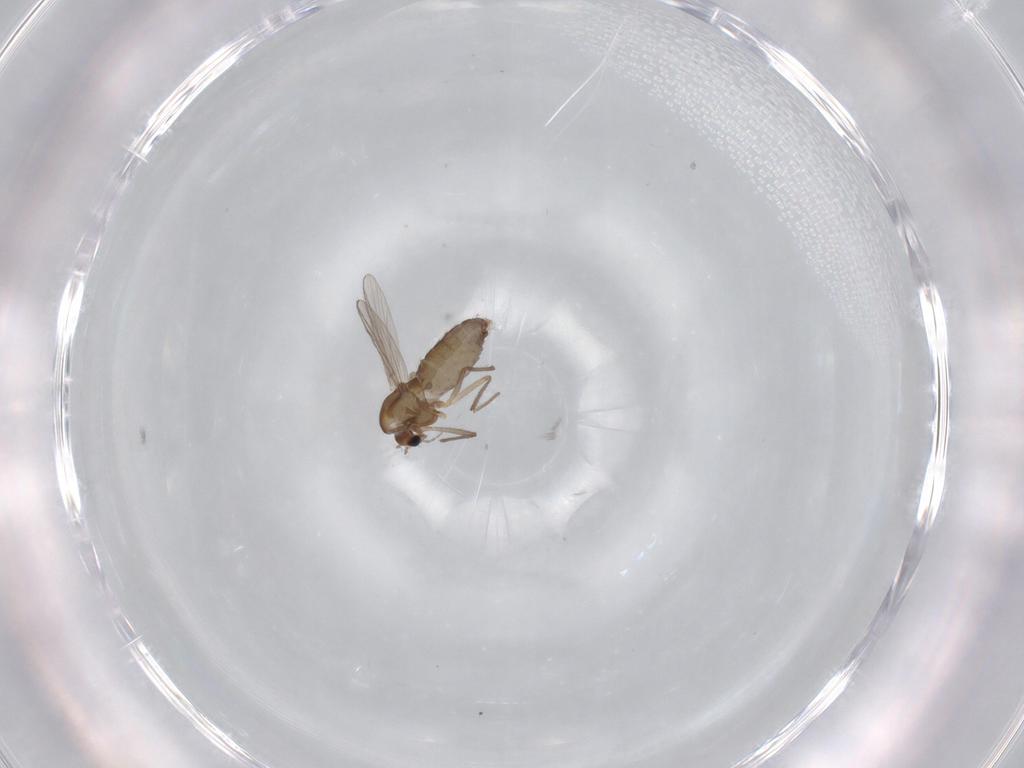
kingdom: Animalia
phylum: Arthropoda
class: Insecta
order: Diptera
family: Chironomidae
